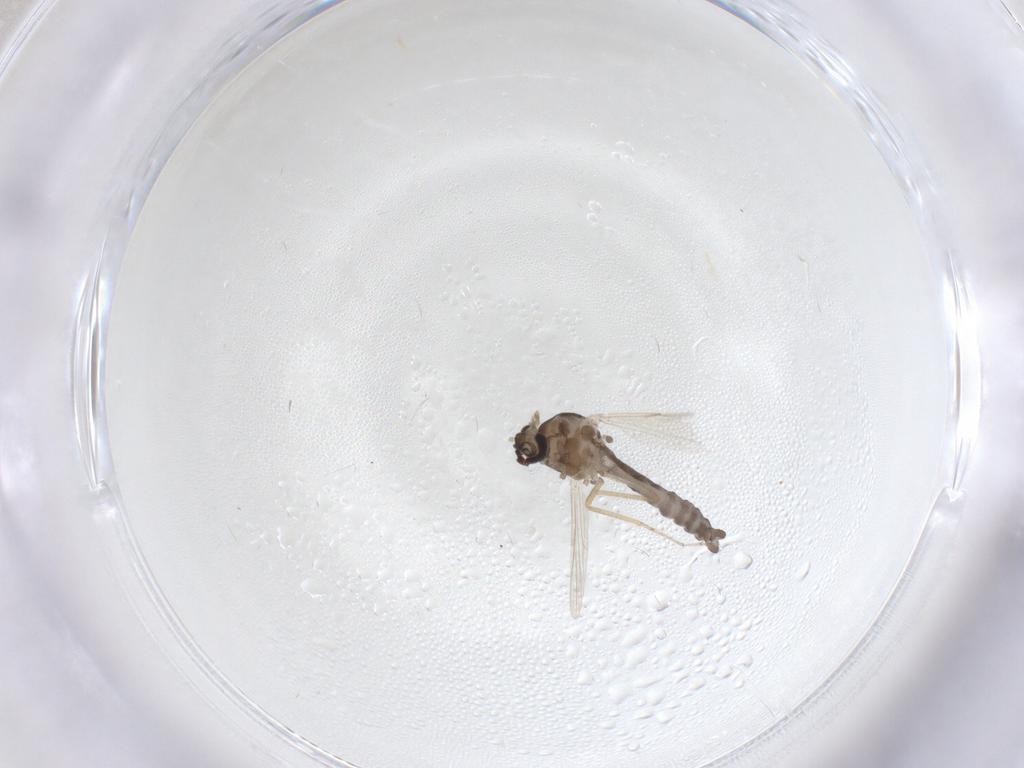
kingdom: Animalia
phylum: Arthropoda
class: Insecta
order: Diptera
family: Ceratopogonidae
